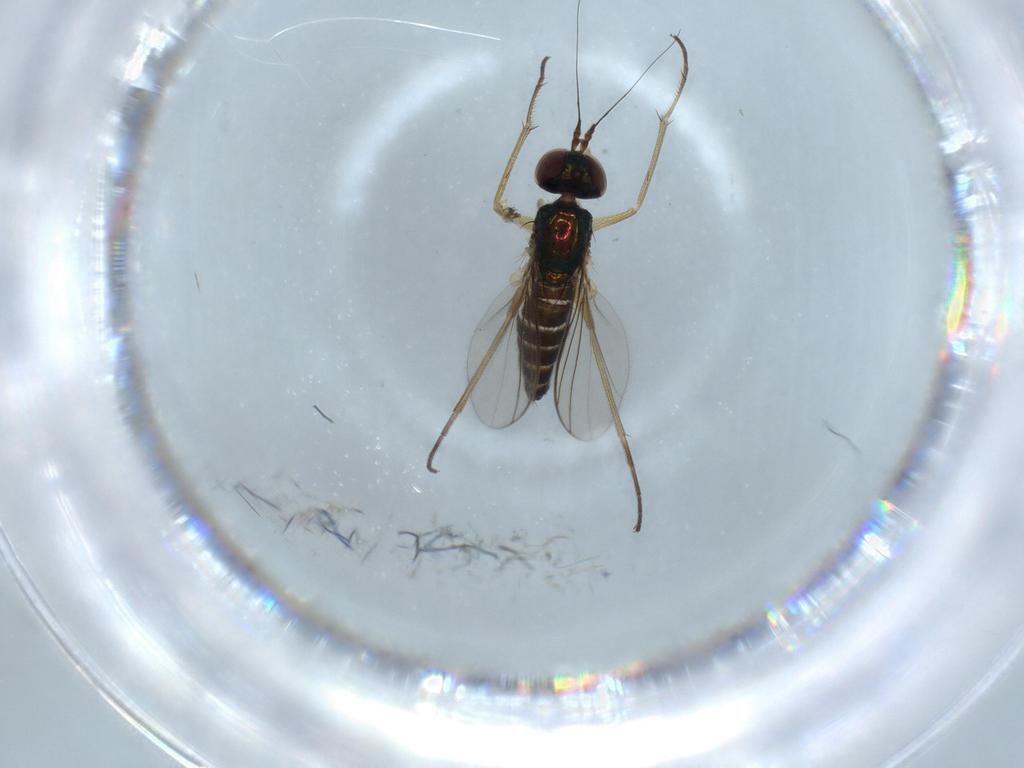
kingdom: Animalia
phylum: Arthropoda
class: Insecta
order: Diptera
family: Dolichopodidae
